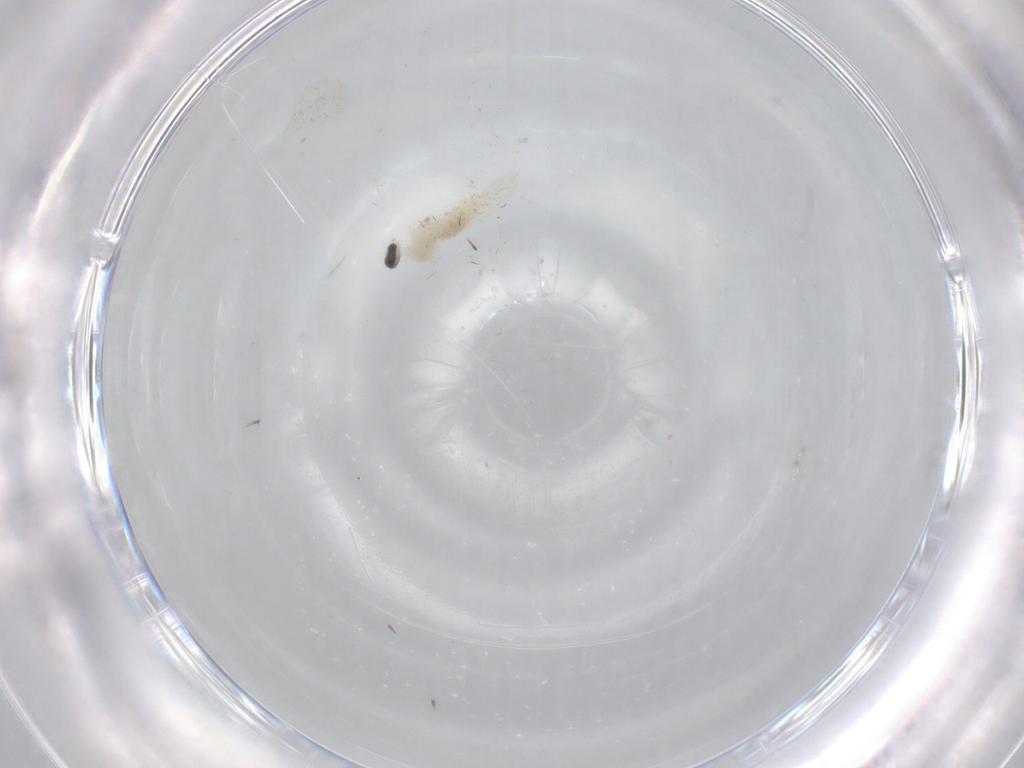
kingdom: Animalia
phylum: Arthropoda
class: Insecta
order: Diptera
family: Cecidomyiidae
